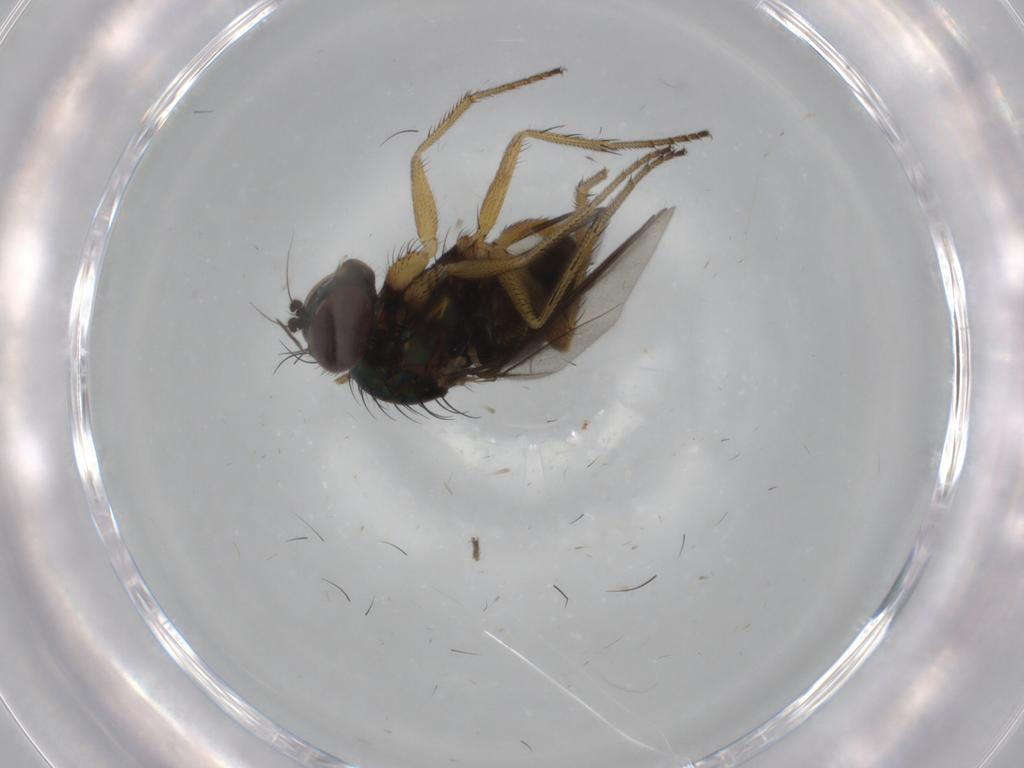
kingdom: Animalia
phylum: Arthropoda
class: Insecta
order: Diptera
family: Dolichopodidae
